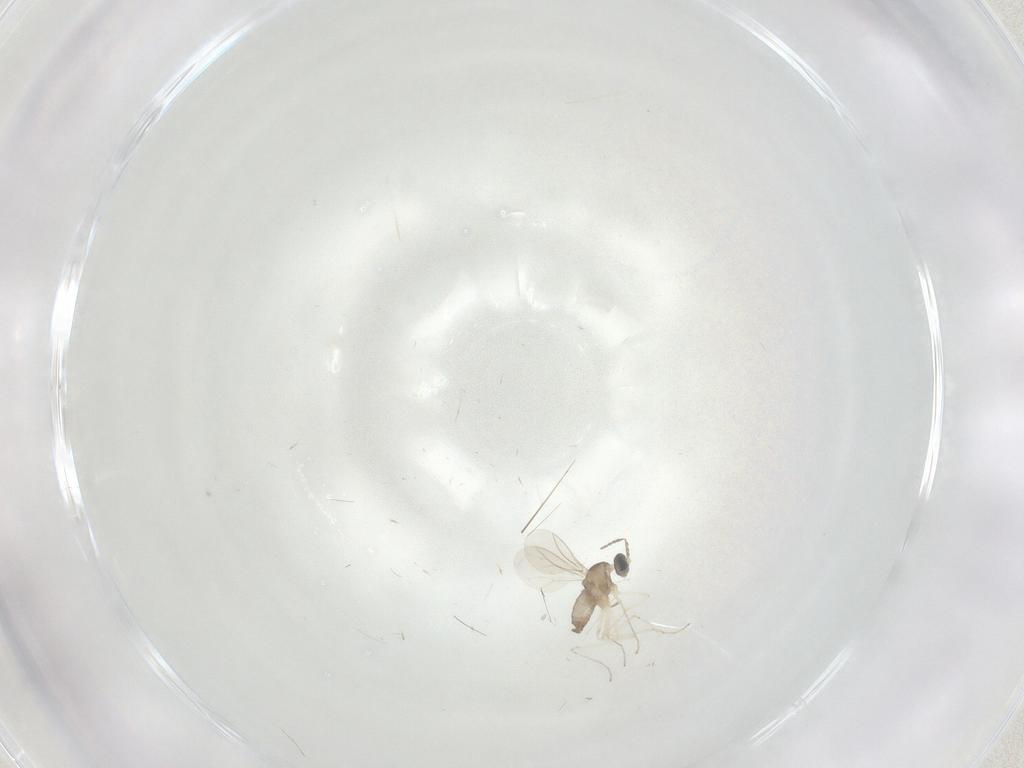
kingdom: Animalia
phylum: Arthropoda
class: Insecta
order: Diptera
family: Cecidomyiidae
